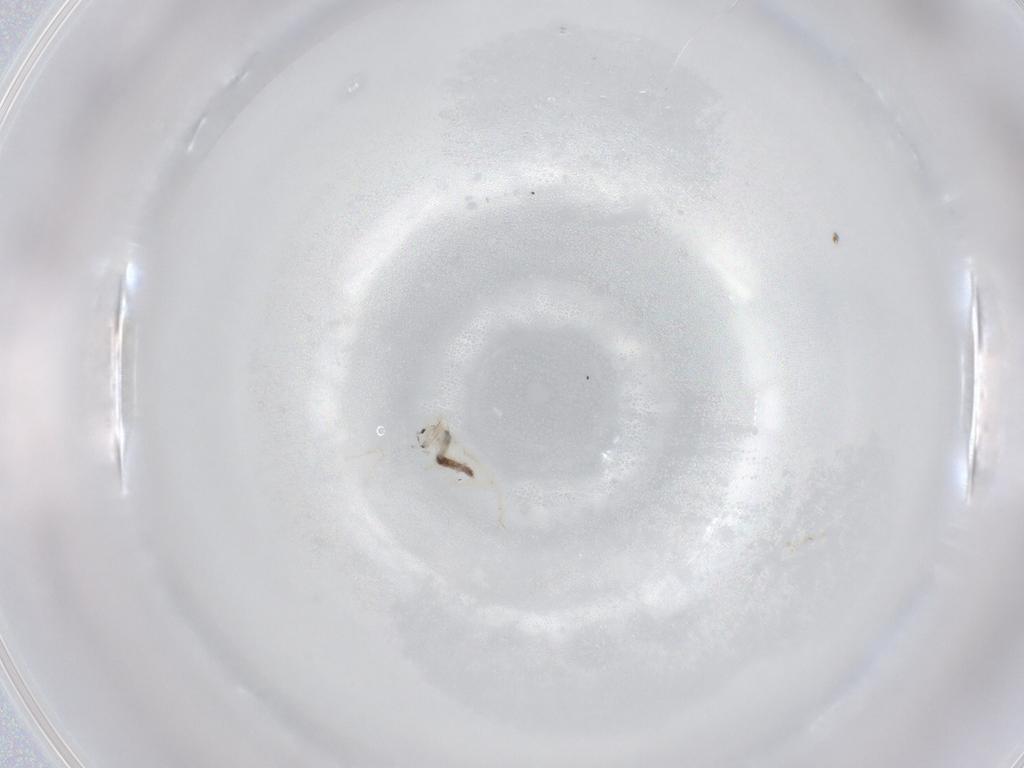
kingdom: Animalia
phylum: Arthropoda
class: Collembola
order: Entomobryomorpha
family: Entomobryidae
